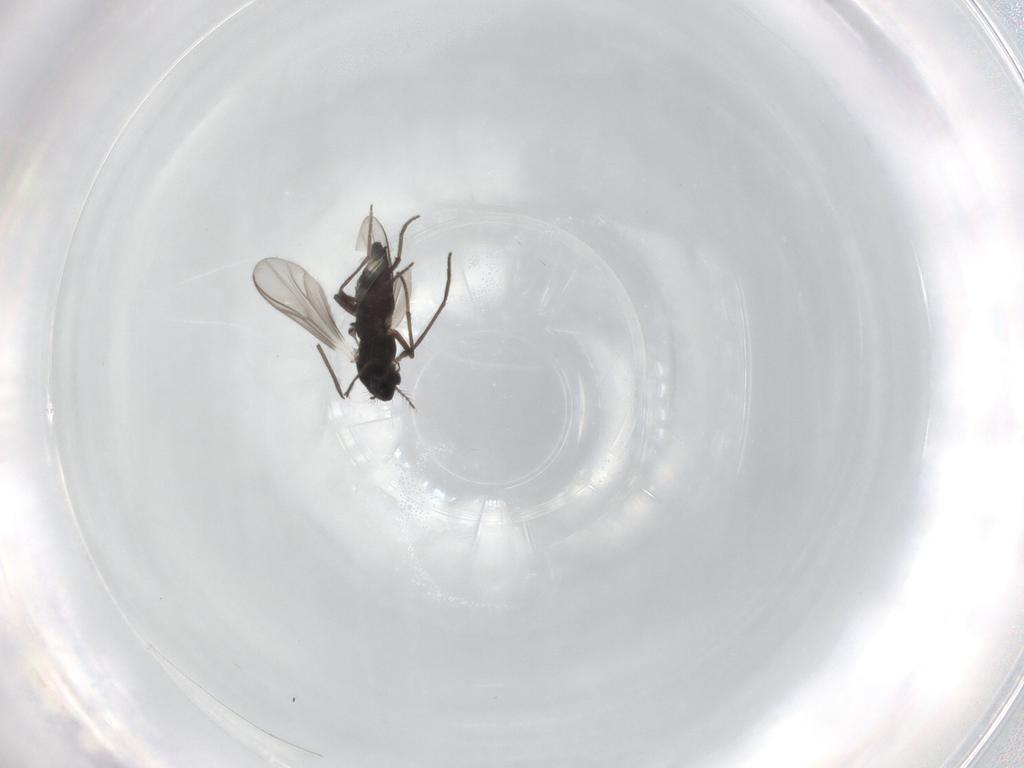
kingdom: Animalia
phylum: Arthropoda
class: Insecta
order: Diptera
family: Chironomidae
